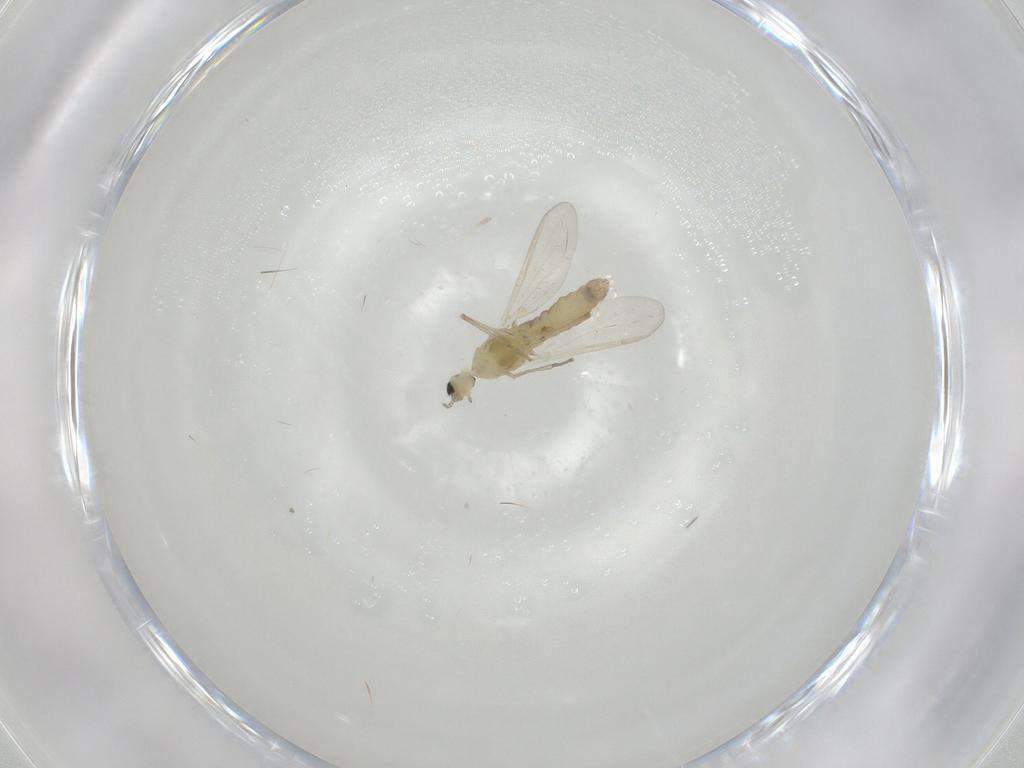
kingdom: Animalia
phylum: Arthropoda
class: Insecta
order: Diptera
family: Chironomidae
